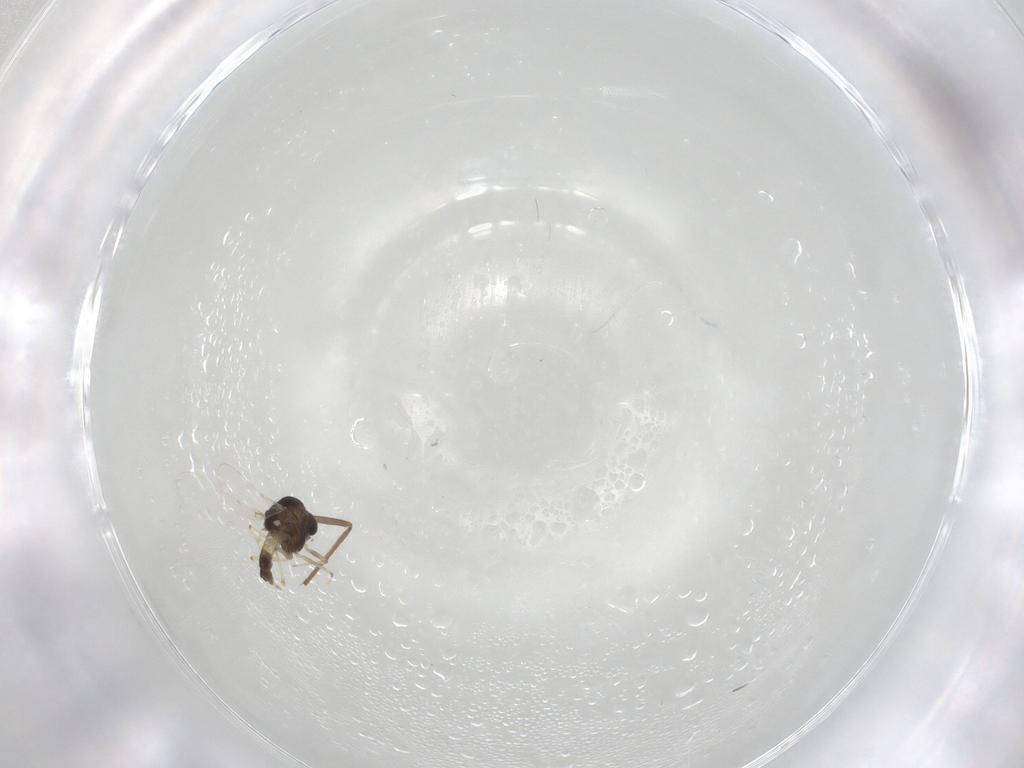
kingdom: Animalia
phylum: Arthropoda
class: Insecta
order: Diptera
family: Chironomidae
